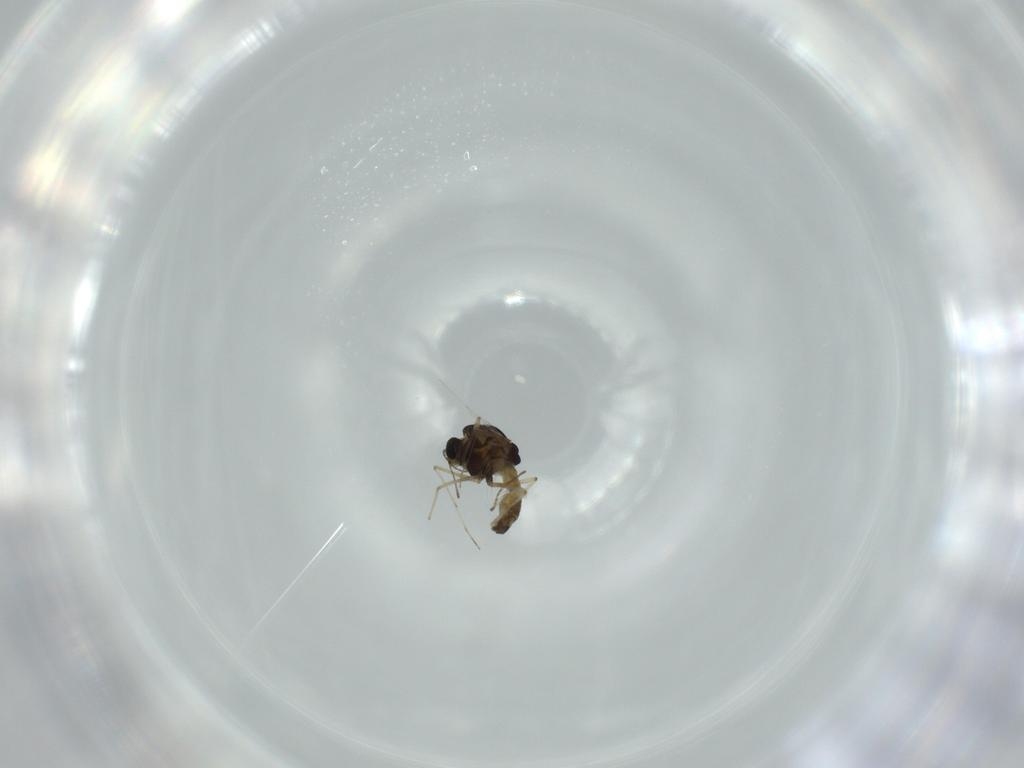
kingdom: Animalia
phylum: Arthropoda
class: Insecta
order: Diptera
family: Chironomidae
